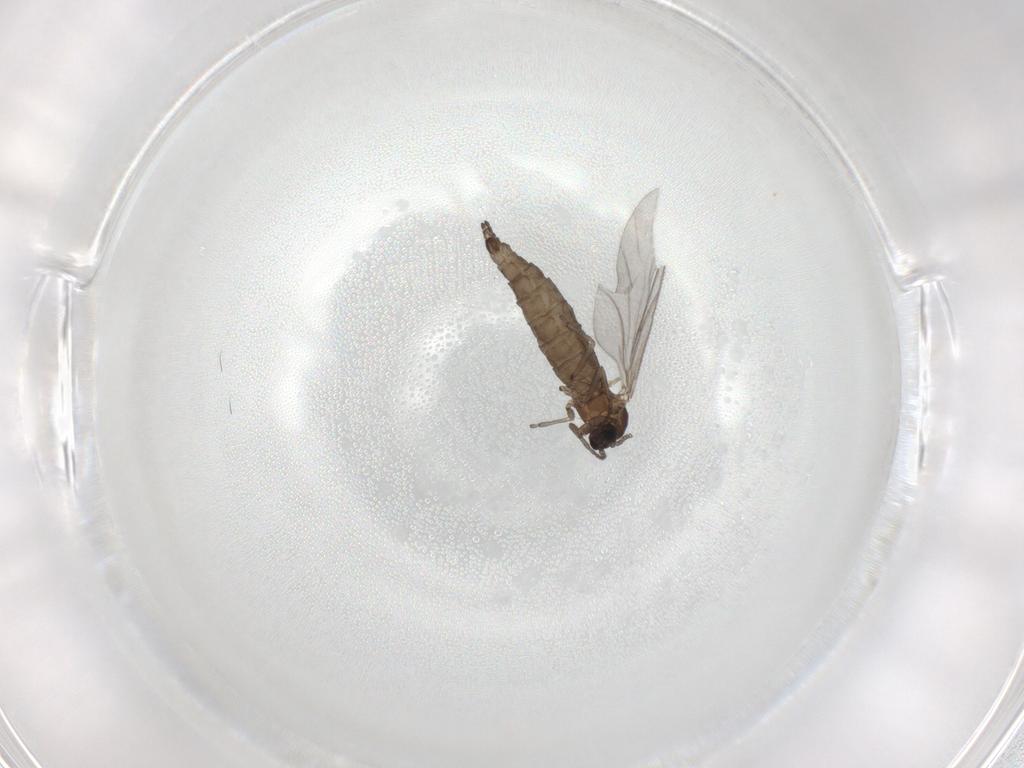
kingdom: Animalia
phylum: Arthropoda
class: Insecta
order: Diptera
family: Sciaridae
